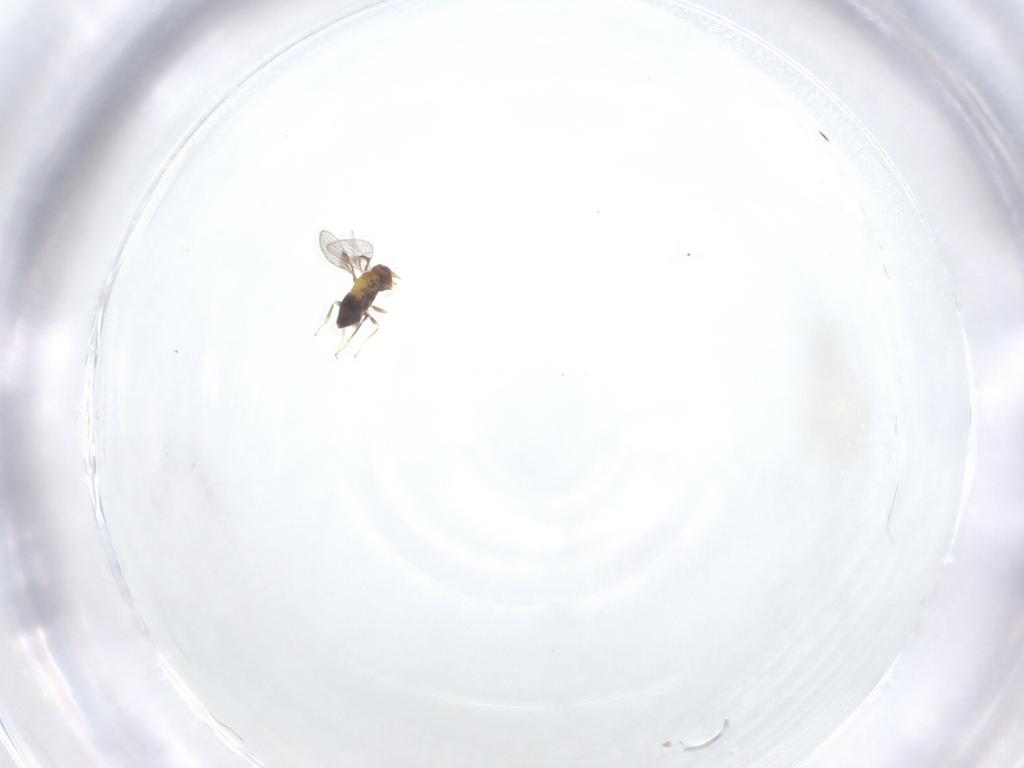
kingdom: Animalia
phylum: Arthropoda
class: Insecta
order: Hymenoptera
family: Trichogrammatidae
